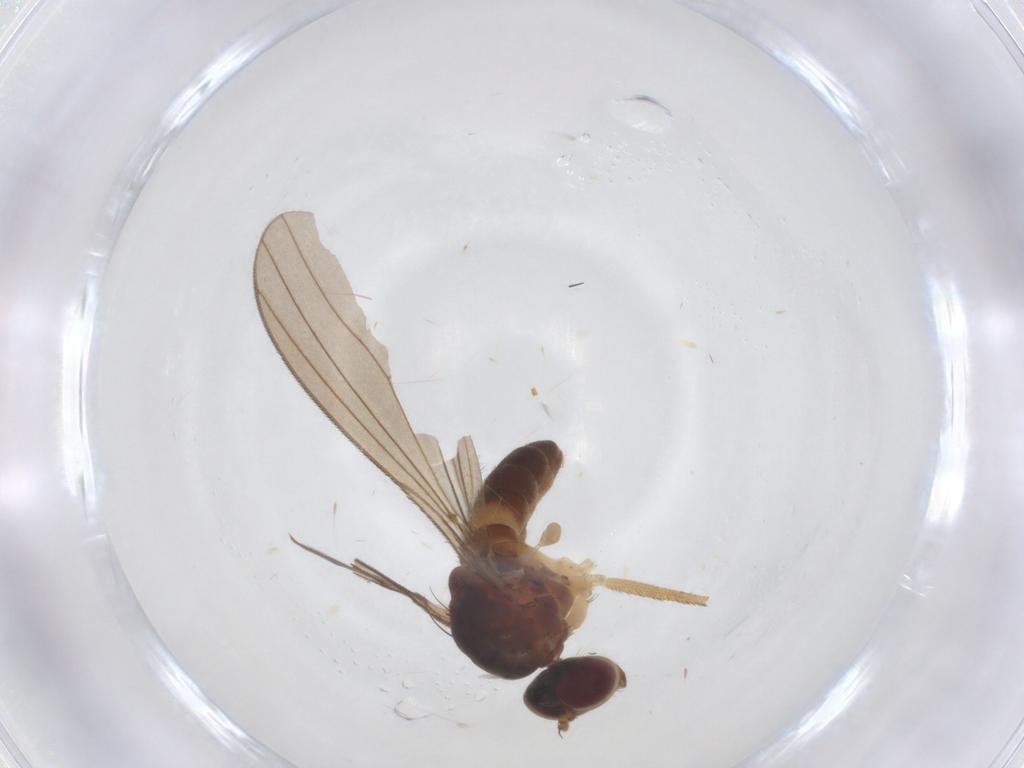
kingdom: Animalia
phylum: Arthropoda
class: Insecta
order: Diptera
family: Dolichopodidae
